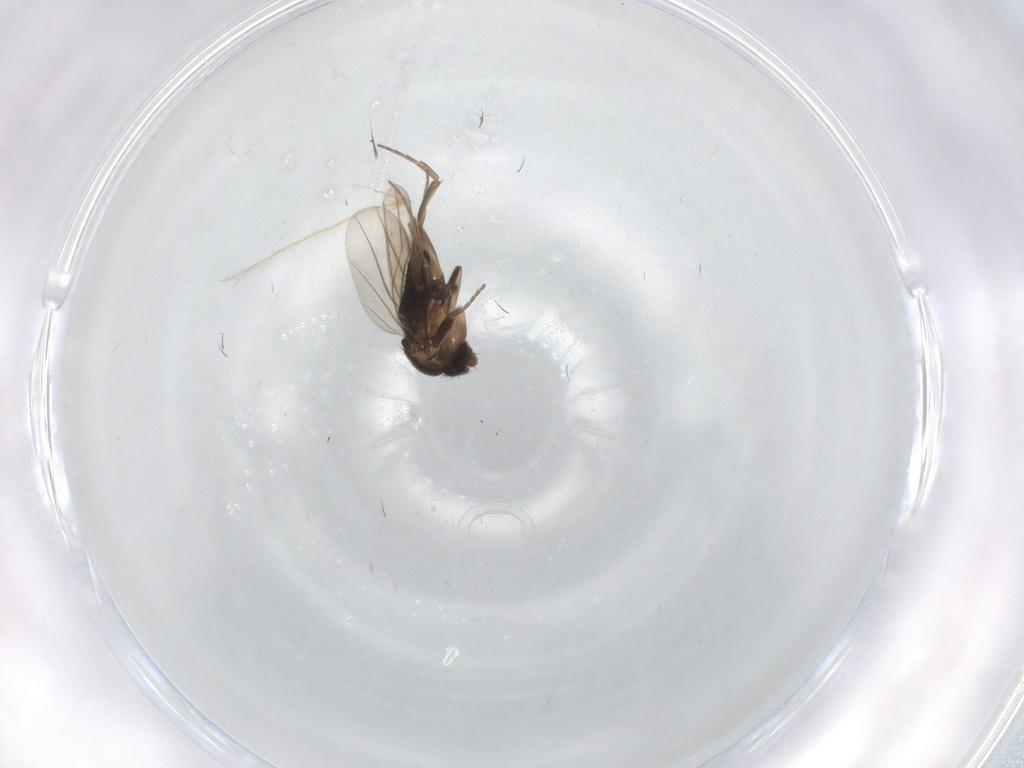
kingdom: Animalia
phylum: Arthropoda
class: Insecta
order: Diptera
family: Phoridae
